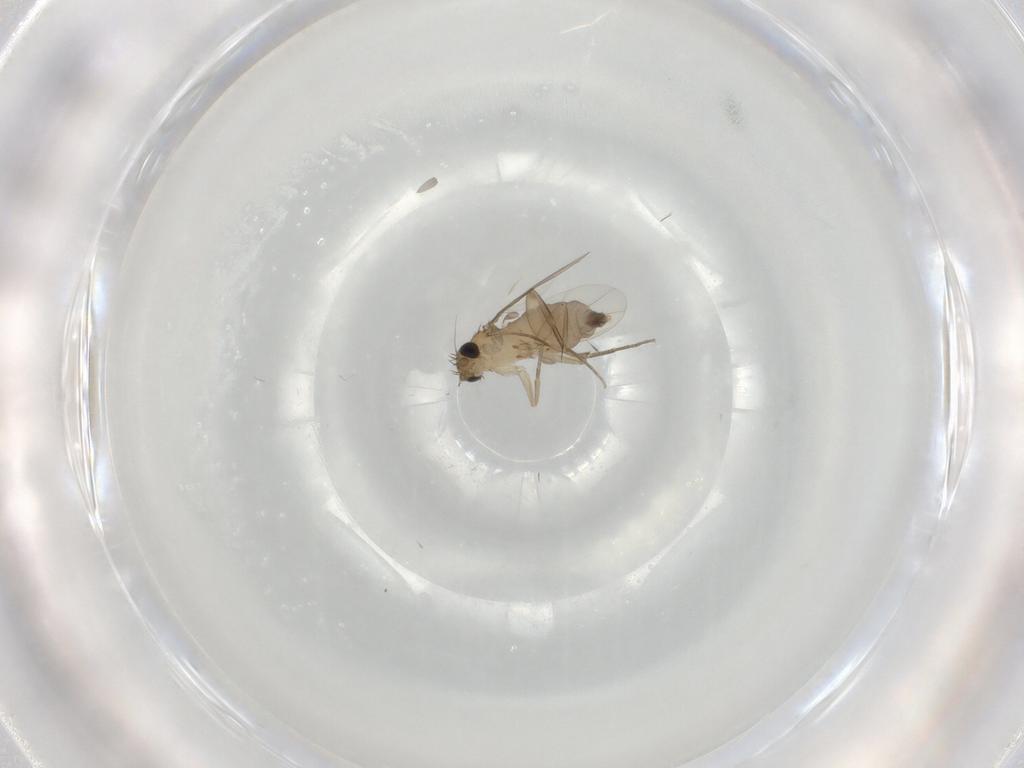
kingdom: Animalia
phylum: Arthropoda
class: Insecta
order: Diptera
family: Phoridae
